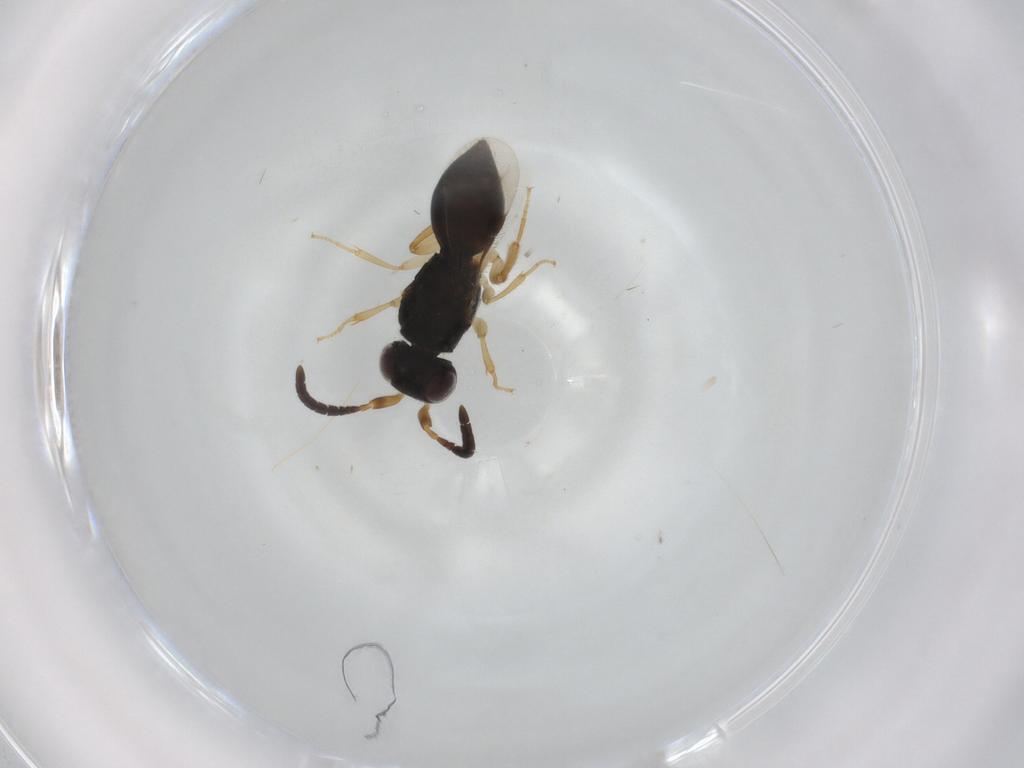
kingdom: Animalia
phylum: Arthropoda
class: Insecta
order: Hymenoptera
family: Megaspilidae
